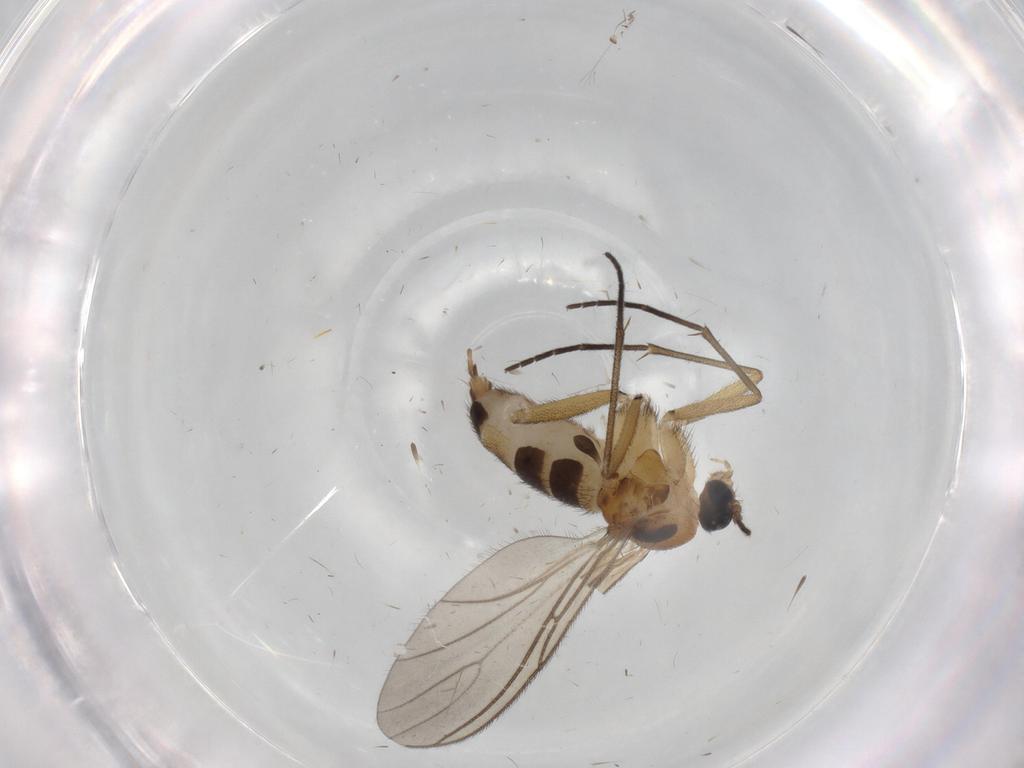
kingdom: Animalia
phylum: Arthropoda
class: Insecta
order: Diptera
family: Sciaridae
